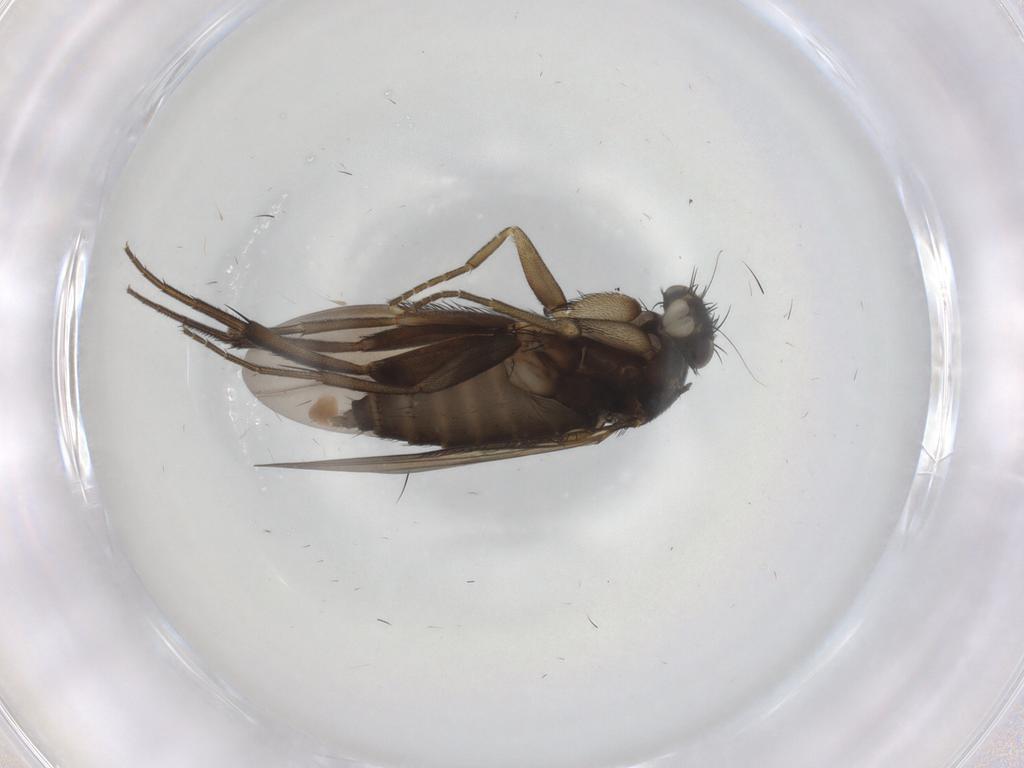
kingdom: Animalia
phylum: Arthropoda
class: Insecta
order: Diptera
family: Phoridae
